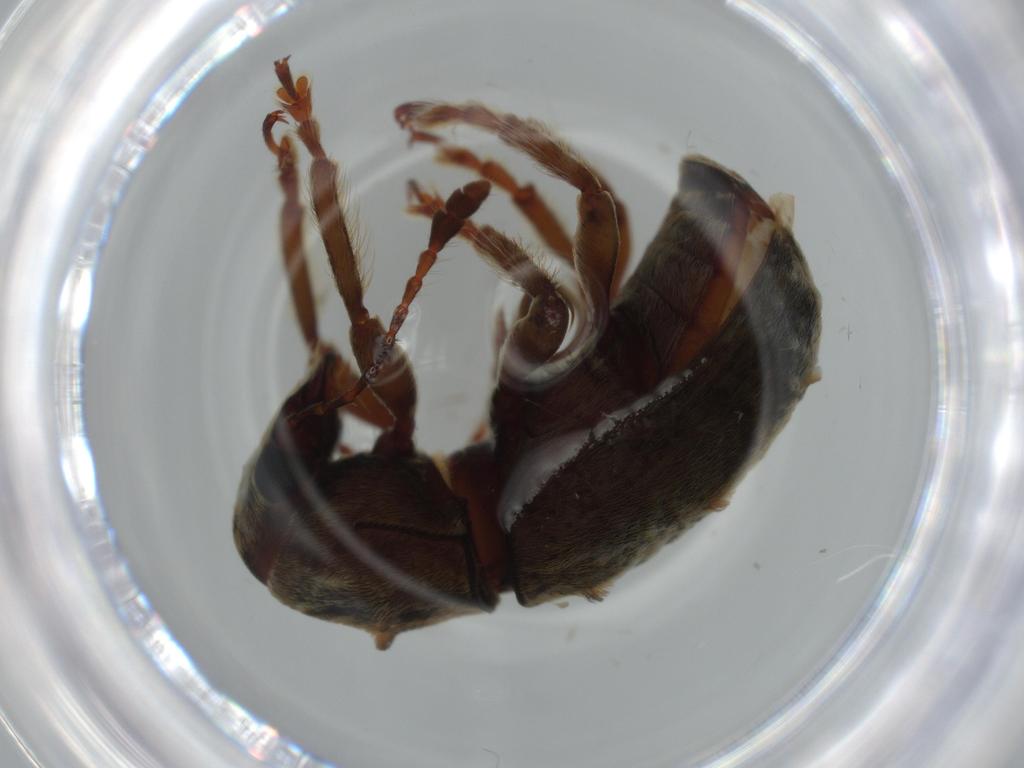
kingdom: Animalia
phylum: Arthropoda
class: Insecta
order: Coleoptera
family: Anthribidae
